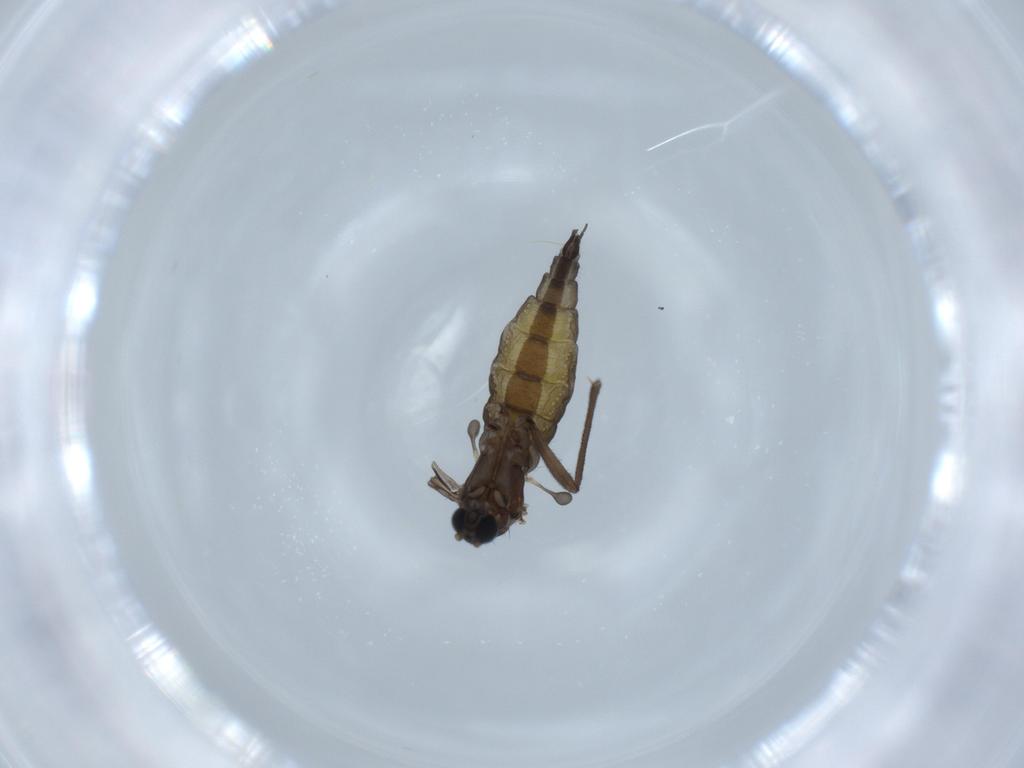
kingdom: Animalia
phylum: Arthropoda
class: Insecta
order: Diptera
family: Sciaridae
